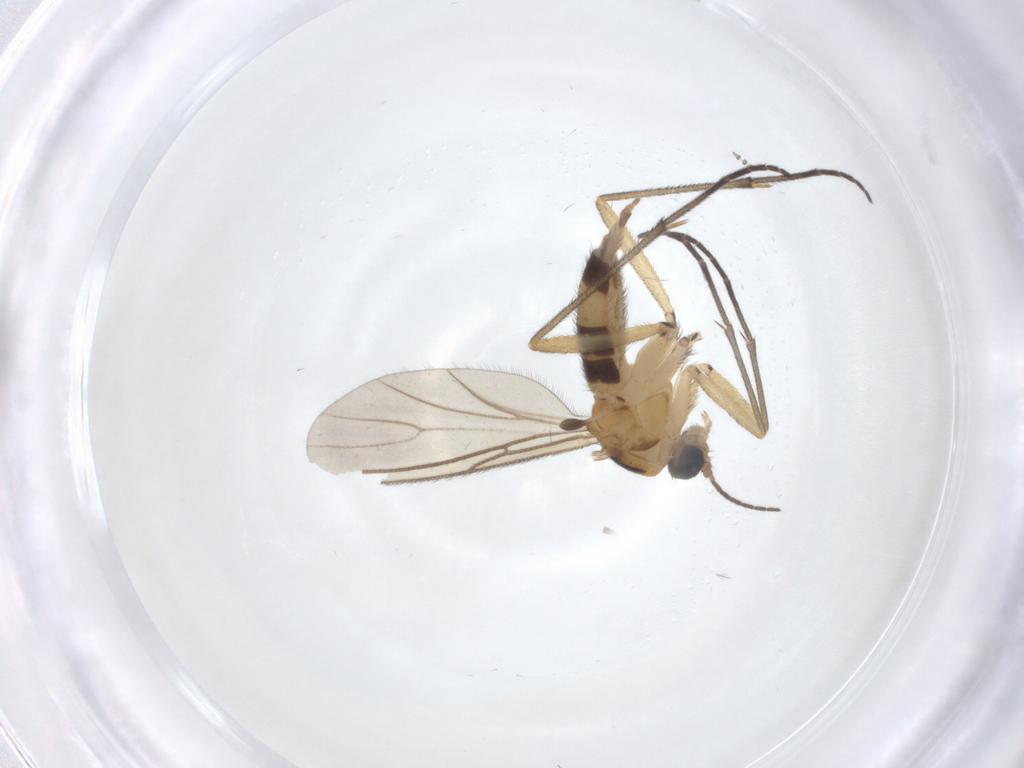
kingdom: Animalia
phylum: Arthropoda
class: Insecta
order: Diptera
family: Psychodidae
